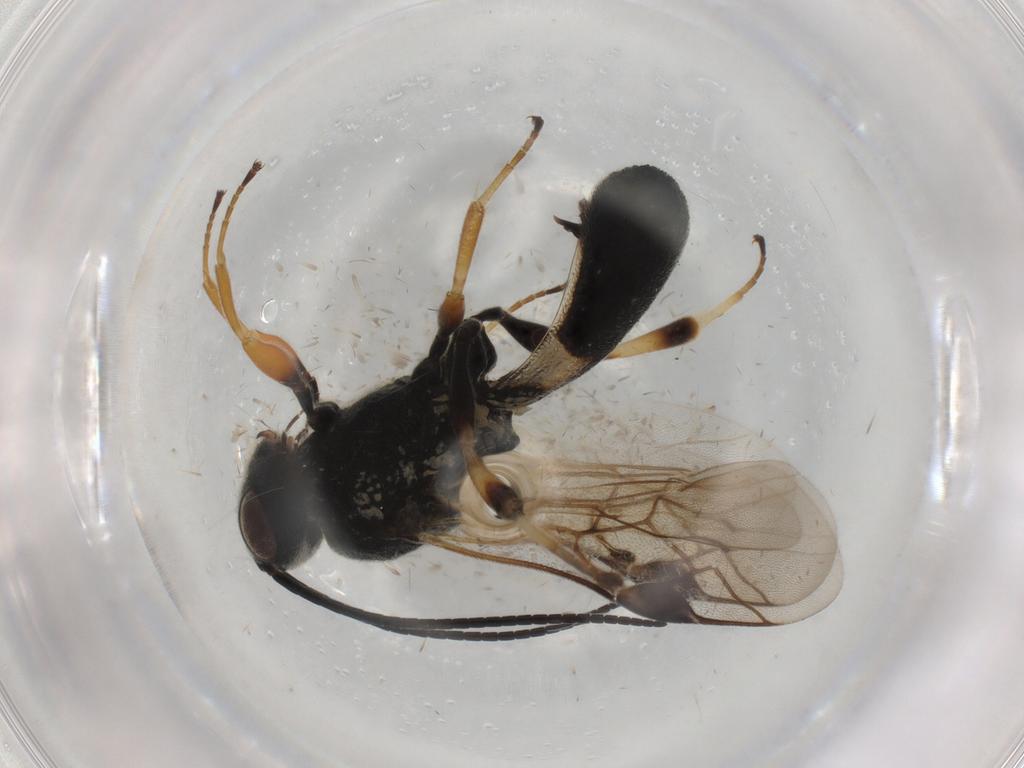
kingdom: Animalia
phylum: Arthropoda
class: Insecta
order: Hymenoptera
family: Braconidae
